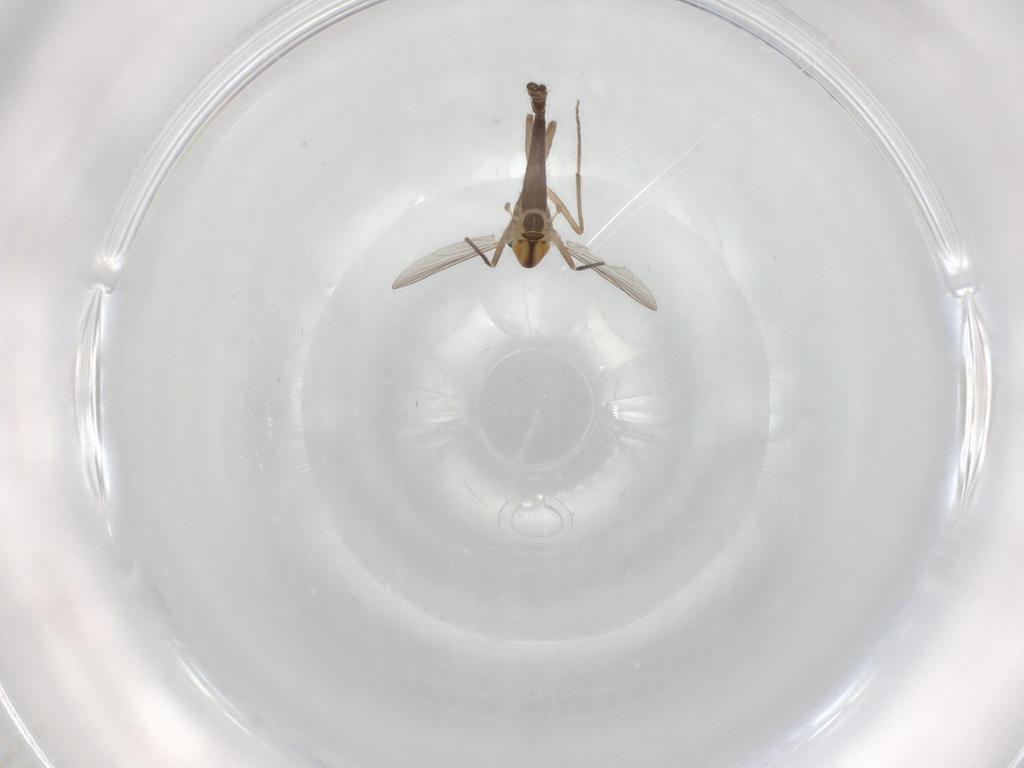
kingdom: Animalia
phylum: Arthropoda
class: Insecta
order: Diptera
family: Chironomidae
